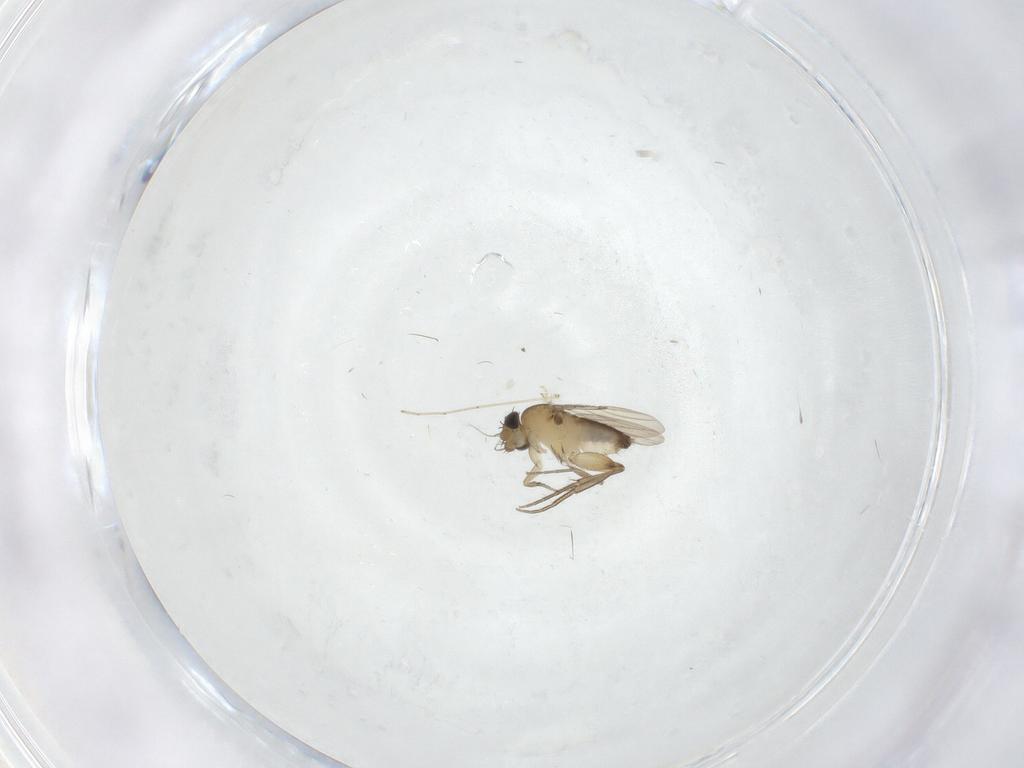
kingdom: Animalia
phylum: Arthropoda
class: Insecta
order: Diptera
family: Phoridae
